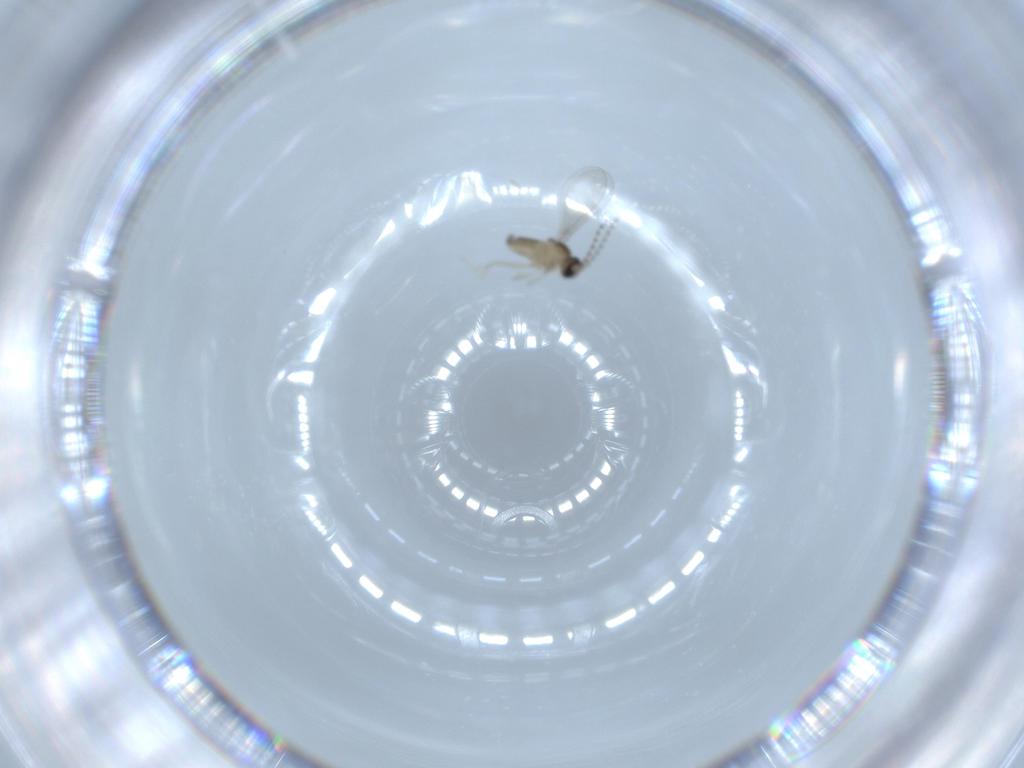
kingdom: Animalia
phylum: Arthropoda
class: Insecta
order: Diptera
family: Cecidomyiidae
